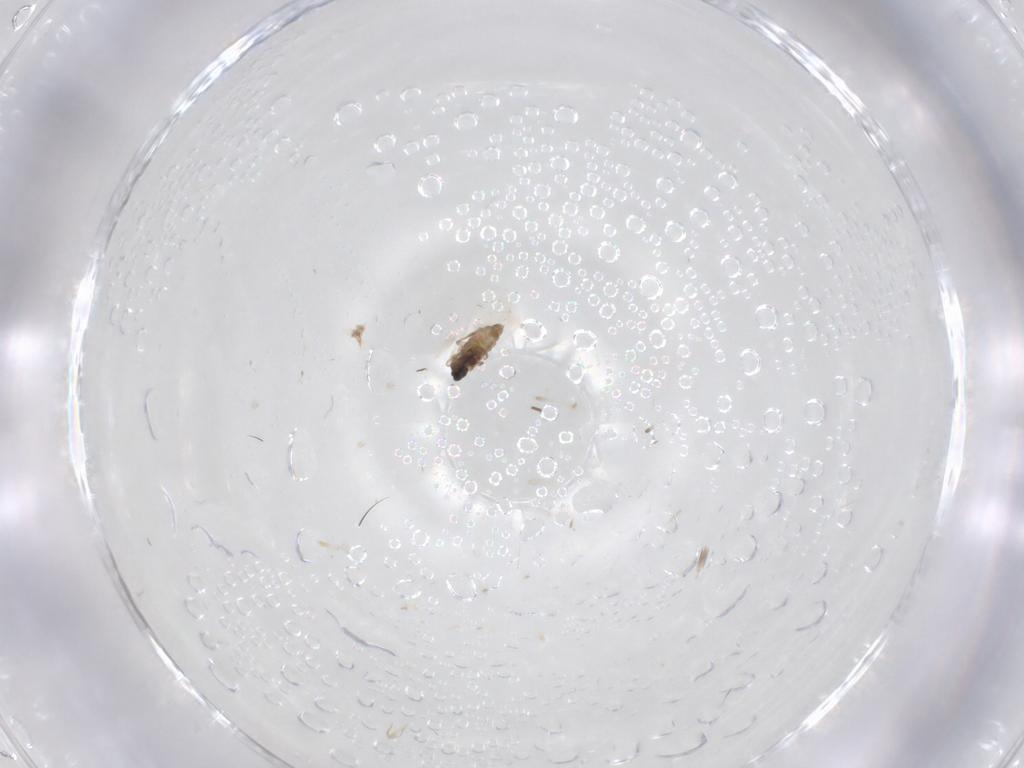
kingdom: Animalia
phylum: Arthropoda
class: Insecta
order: Diptera
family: Cecidomyiidae
